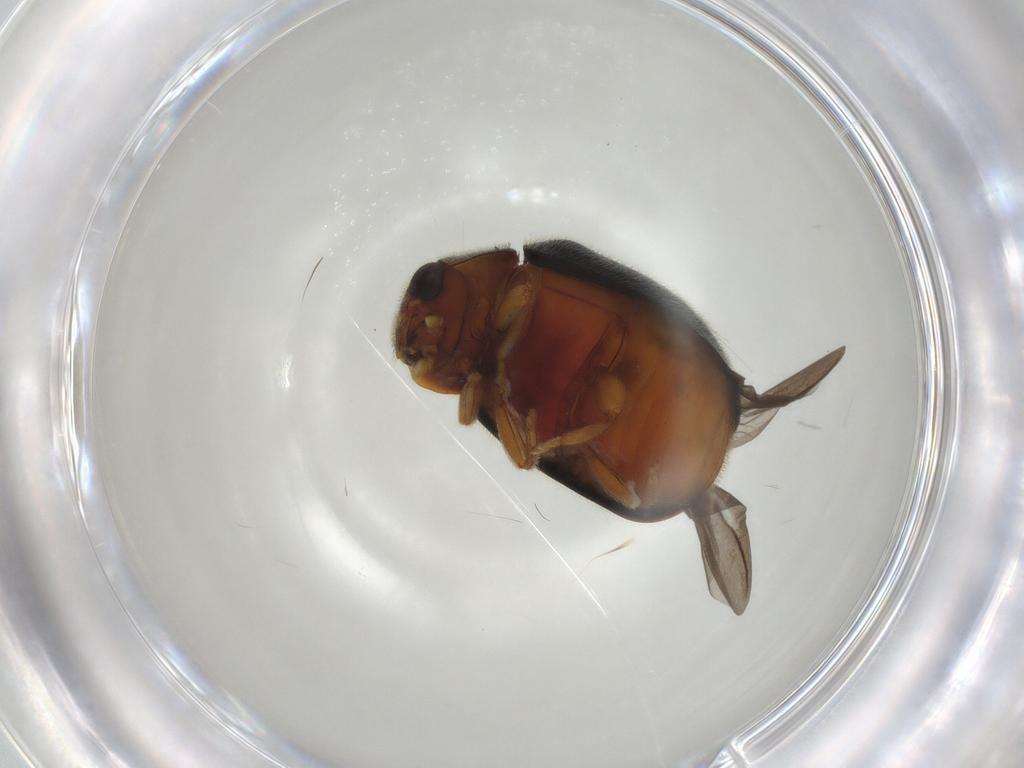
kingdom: Animalia
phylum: Arthropoda
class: Insecta
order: Coleoptera
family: Coccinellidae
